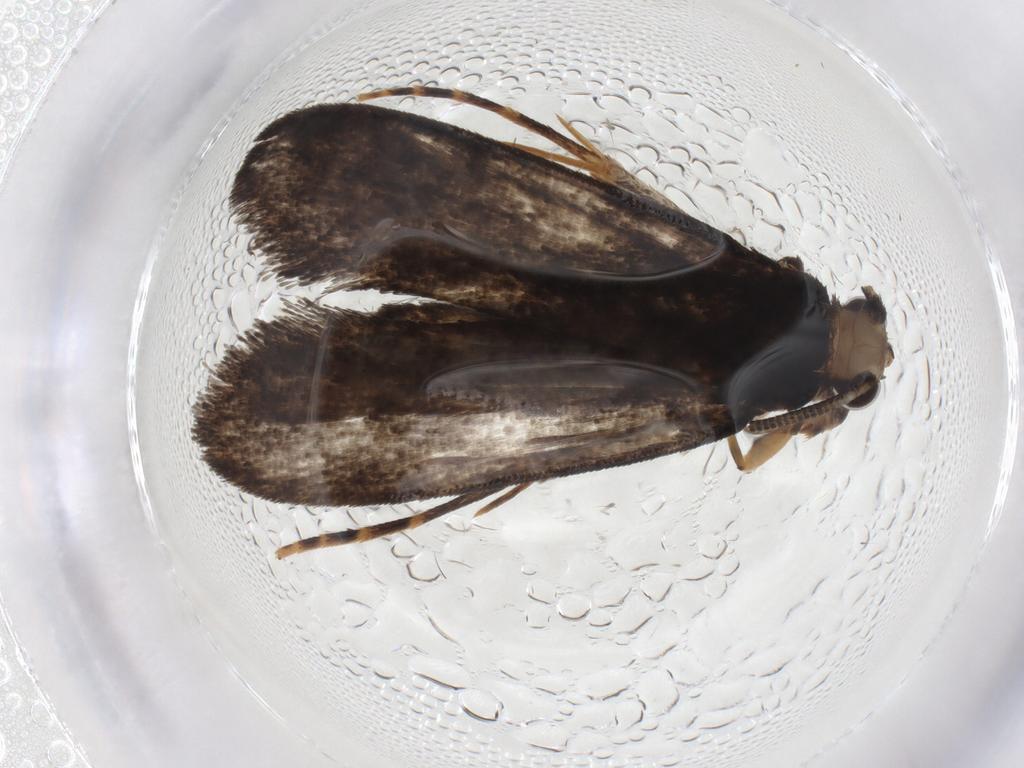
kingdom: Animalia
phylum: Arthropoda
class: Insecta
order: Lepidoptera
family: Tineidae
